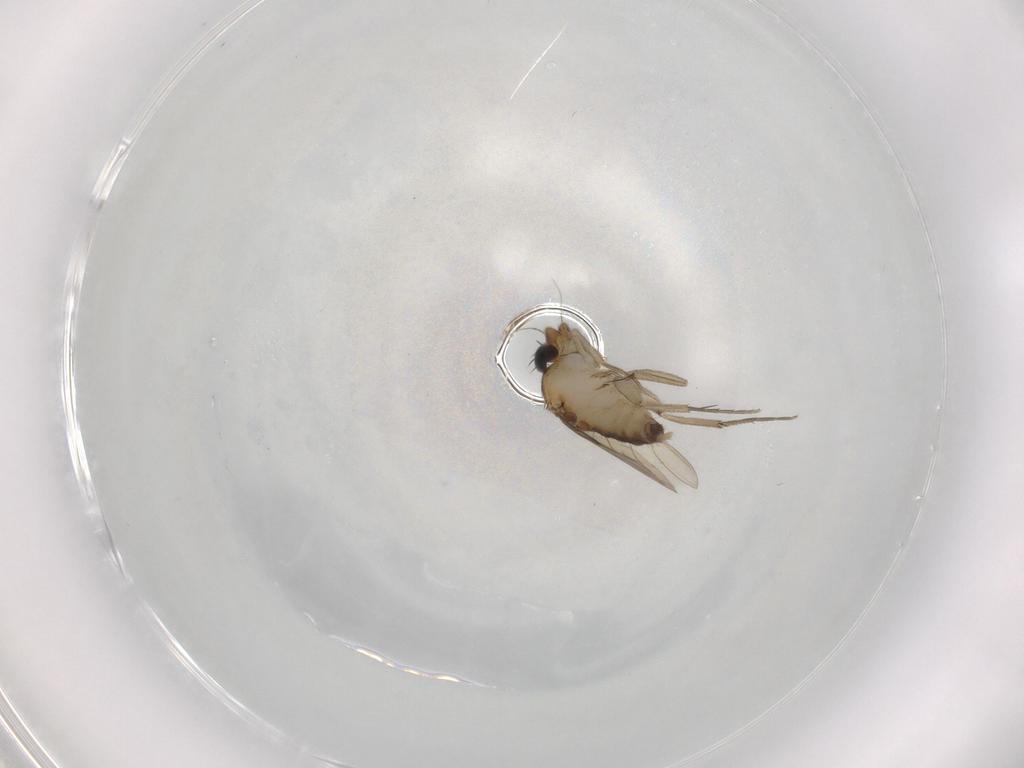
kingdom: Animalia
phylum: Arthropoda
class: Insecta
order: Diptera
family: Phoridae
